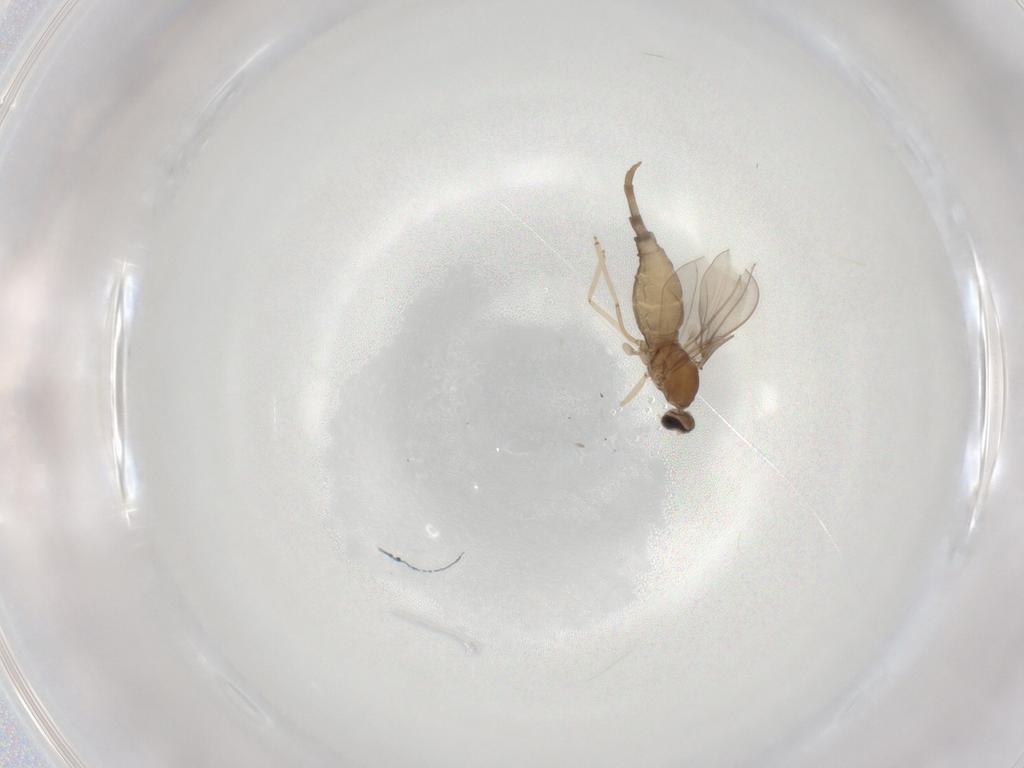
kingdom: Animalia
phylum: Arthropoda
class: Insecta
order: Diptera
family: Cecidomyiidae
